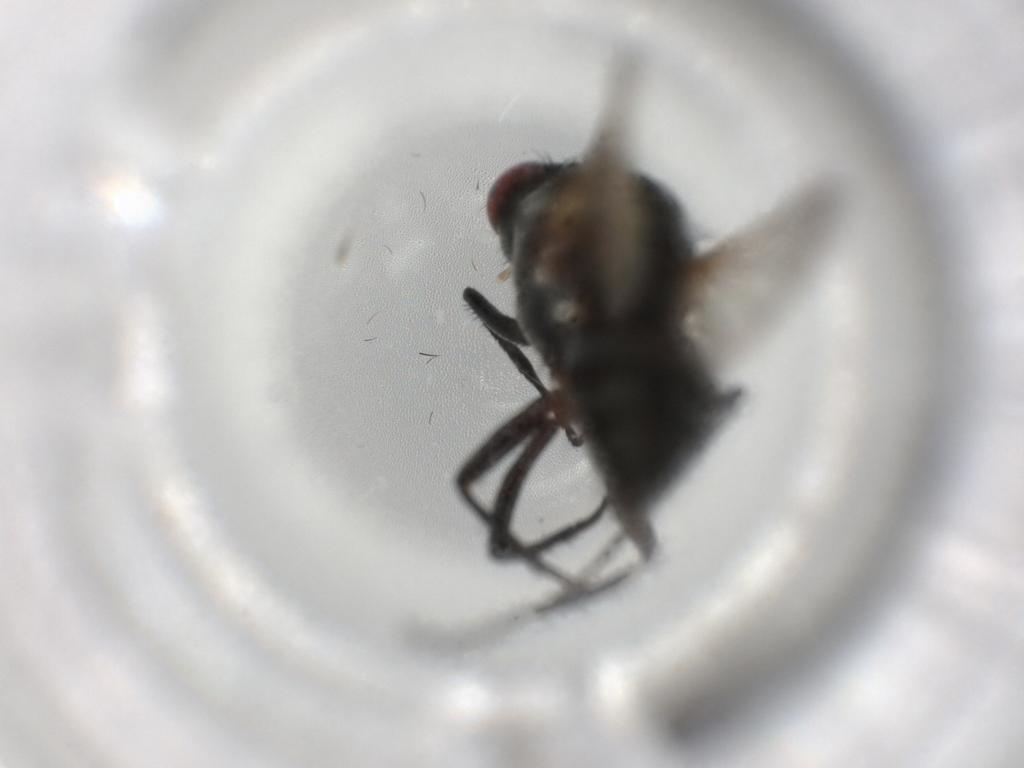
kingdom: Animalia
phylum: Arthropoda
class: Insecta
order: Diptera
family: Anthomyiidae
